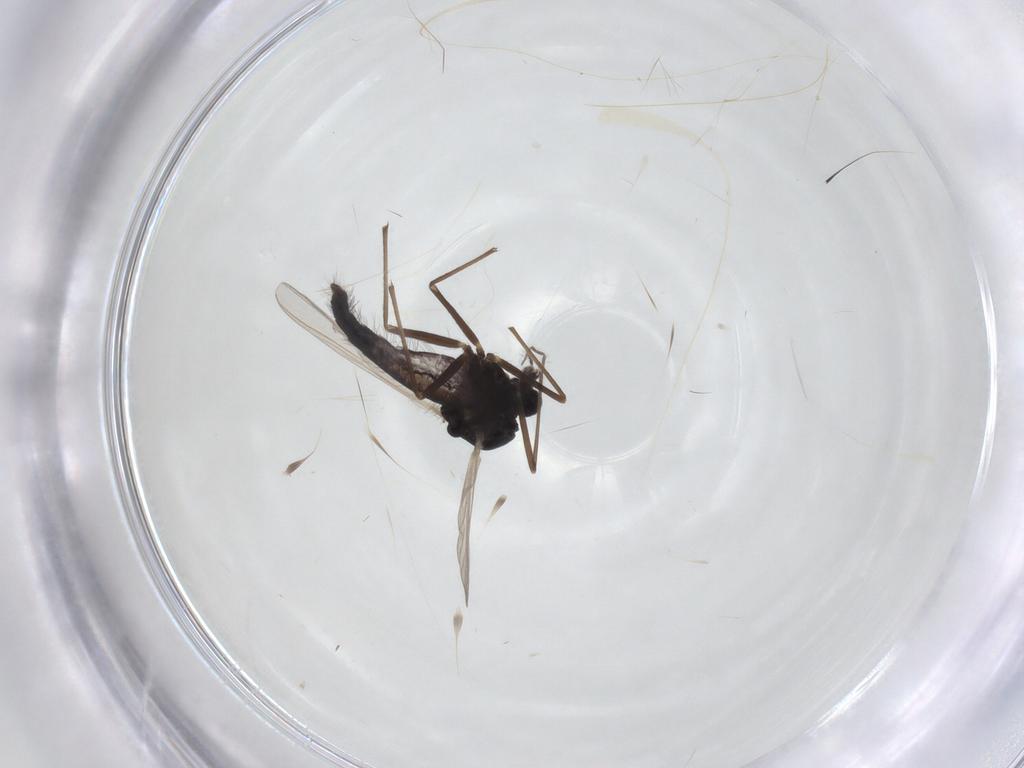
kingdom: Animalia
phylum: Arthropoda
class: Insecta
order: Diptera
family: Chironomidae
